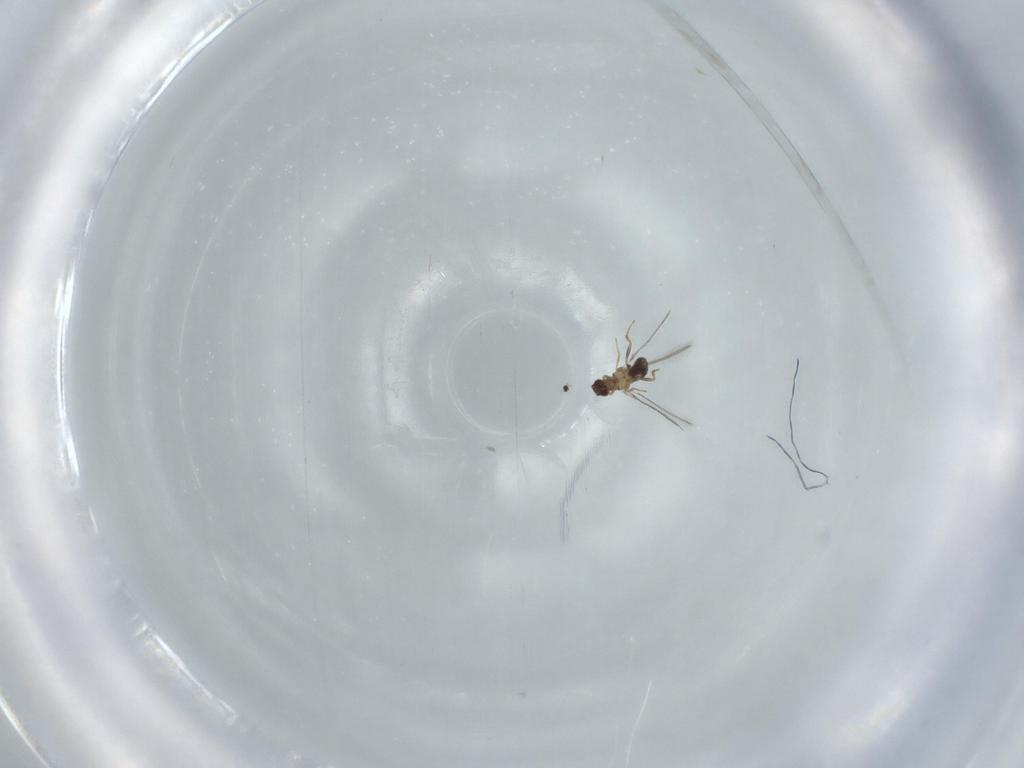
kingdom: Animalia
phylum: Arthropoda
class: Insecta
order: Hymenoptera
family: Mymaridae
